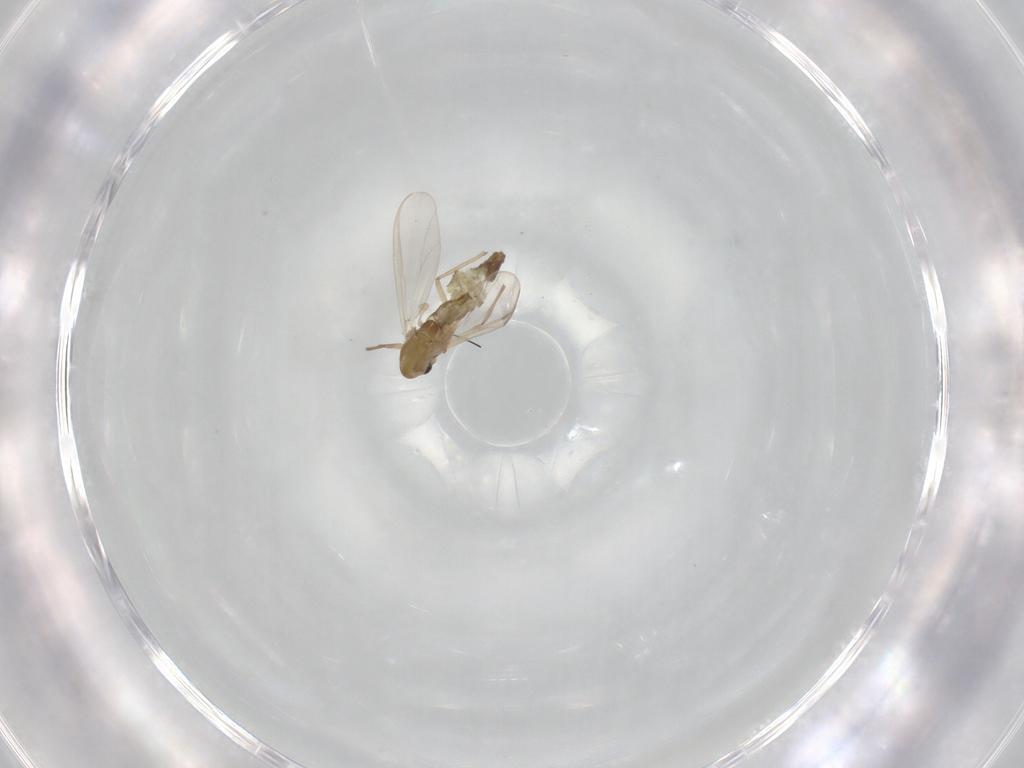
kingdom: Animalia
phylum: Arthropoda
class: Insecta
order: Diptera
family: Chironomidae
